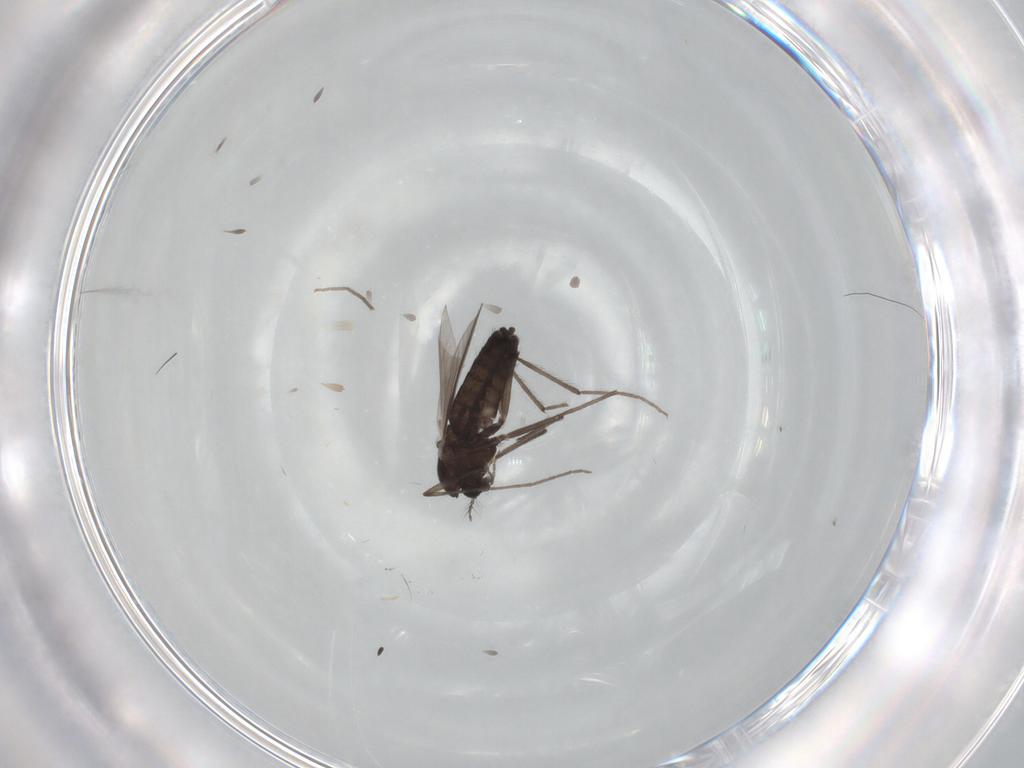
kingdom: Animalia
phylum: Arthropoda
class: Insecta
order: Diptera
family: Chironomidae
